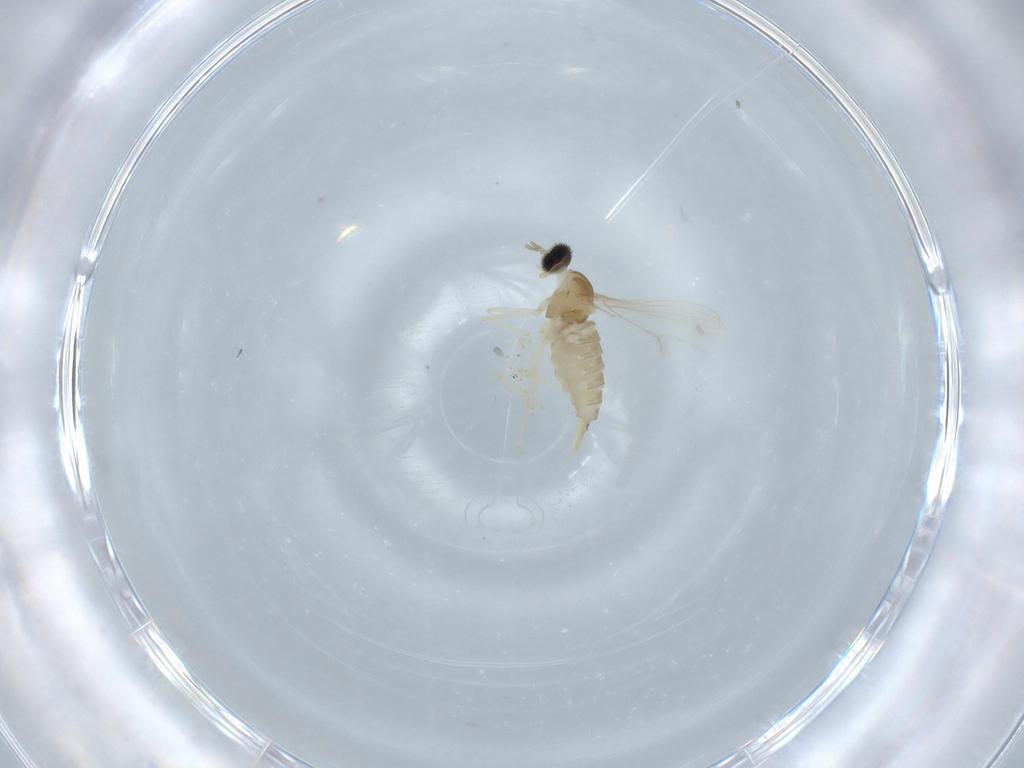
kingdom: Animalia
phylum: Arthropoda
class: Insecta
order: Diptera
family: Cecidomyiidae
